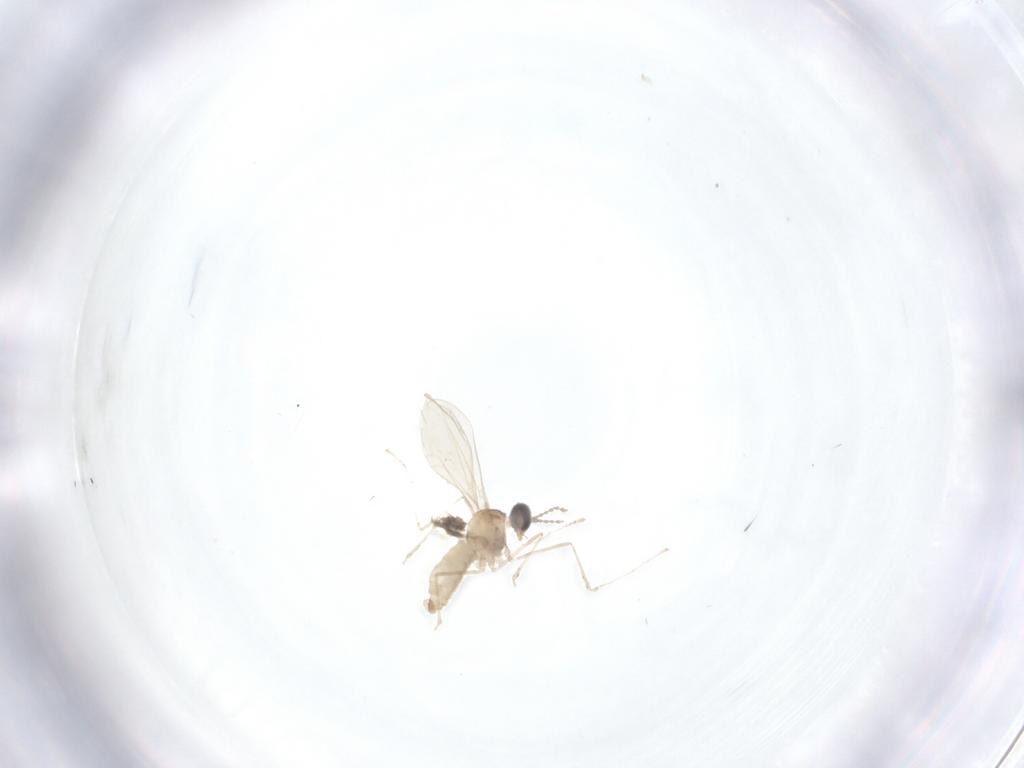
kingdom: Animalia
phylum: Arthropoda
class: Insecta
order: Diptera
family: Cecidomyiidae
